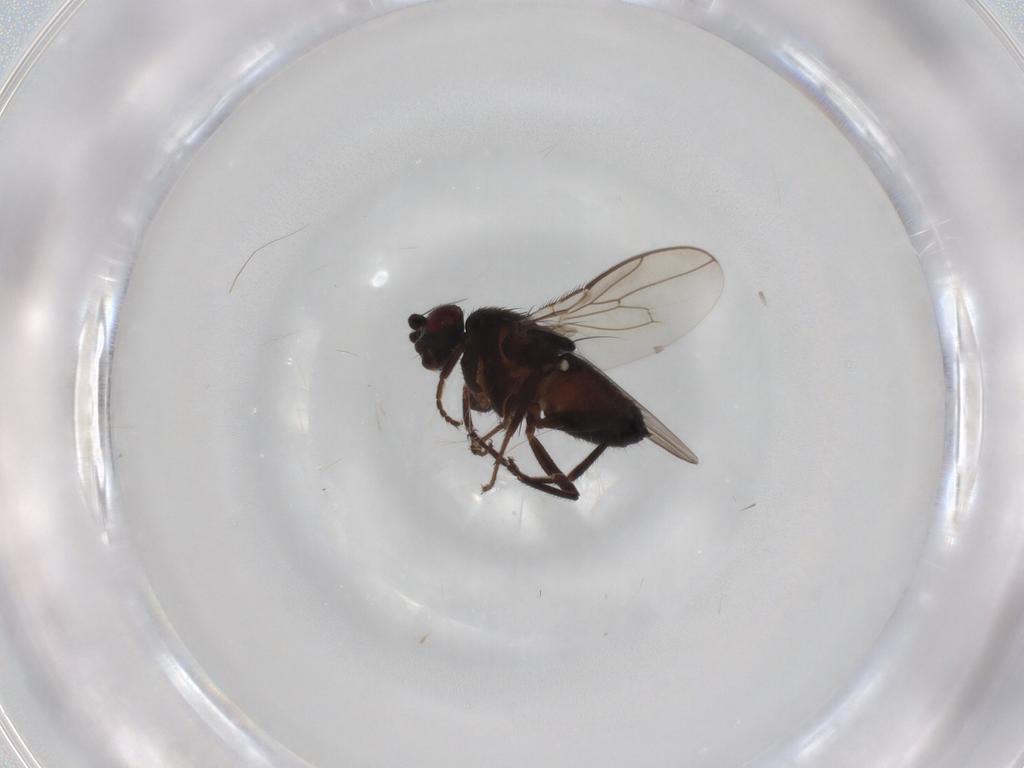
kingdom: Animalia
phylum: Arthropoda
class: Insecta
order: Diptera
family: Sphaeroceridae
